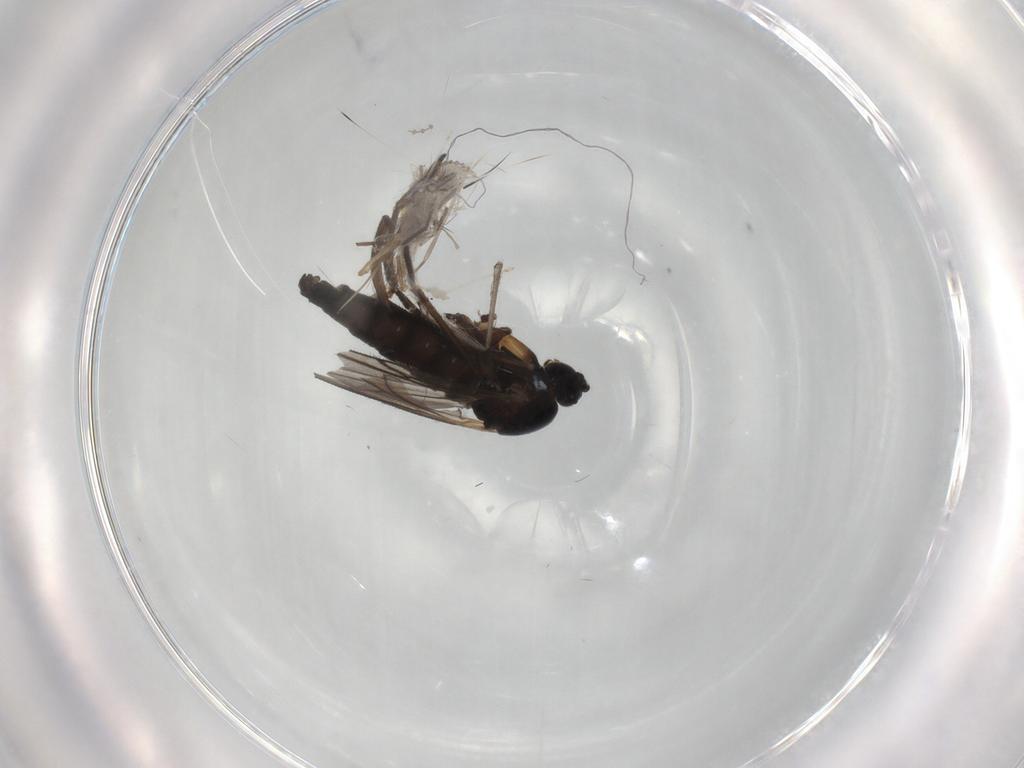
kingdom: Animalia
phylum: Arthropoda
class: Insecta
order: Diptera
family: Sciaridae
